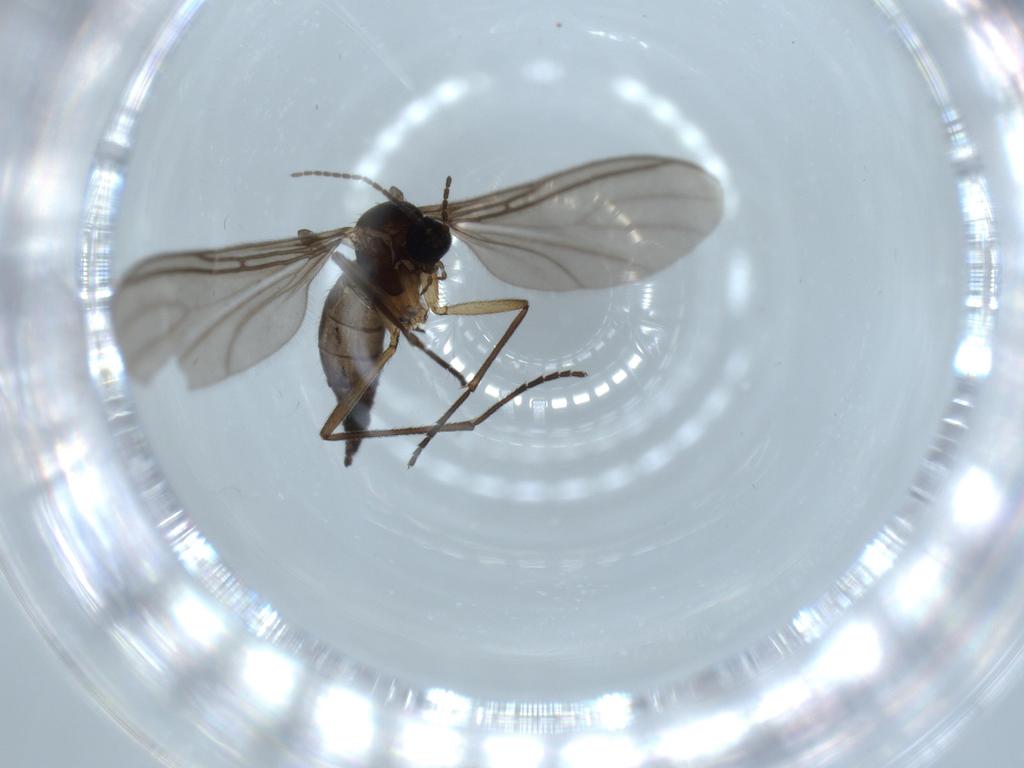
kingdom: Animalia
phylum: Arthropoda
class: Insecta
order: Diptera
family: Sciaridae
